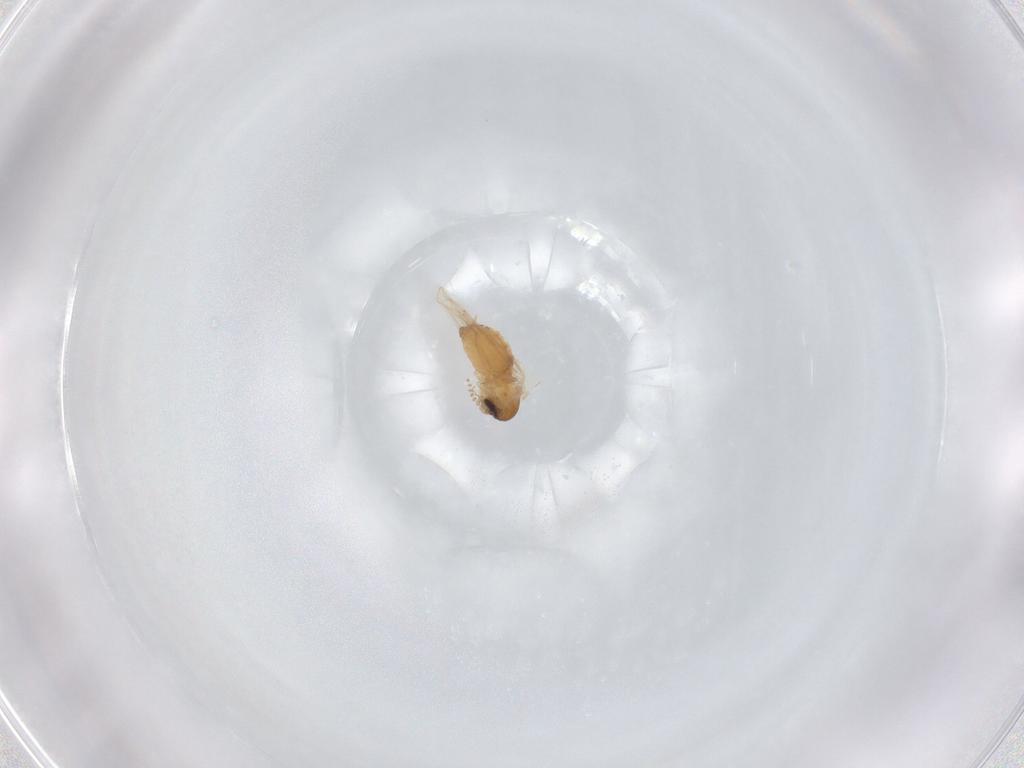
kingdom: Animalia
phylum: Arthropoda
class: Insecta
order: Diptera
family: Ceratopogonidae
